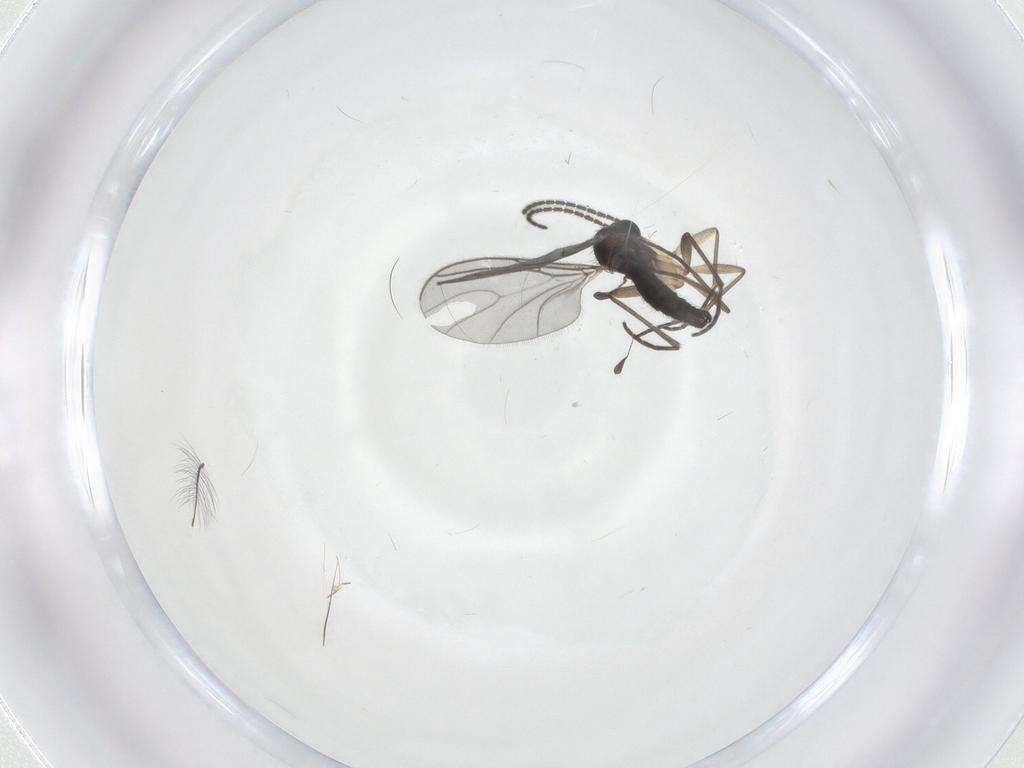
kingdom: Animalia
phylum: Arthropoda
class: Insecta
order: Diptera
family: Sciaridae
